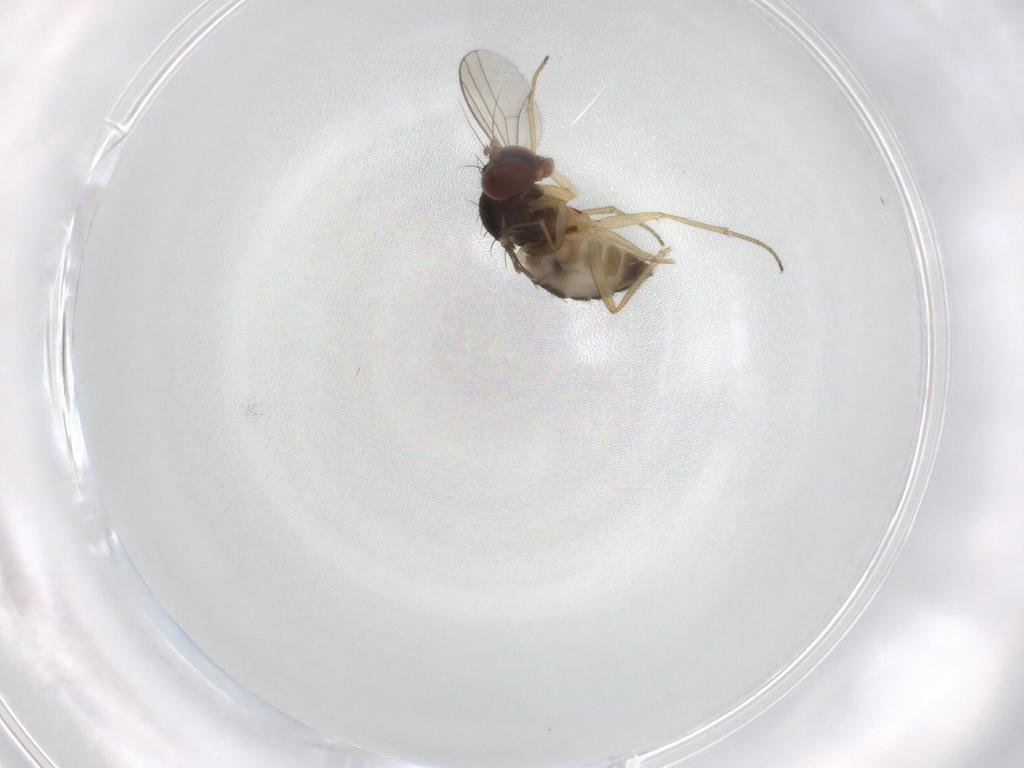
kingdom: Animalia
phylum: Arthropoda
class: Insecta
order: Diptera
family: Dolichopodidae
